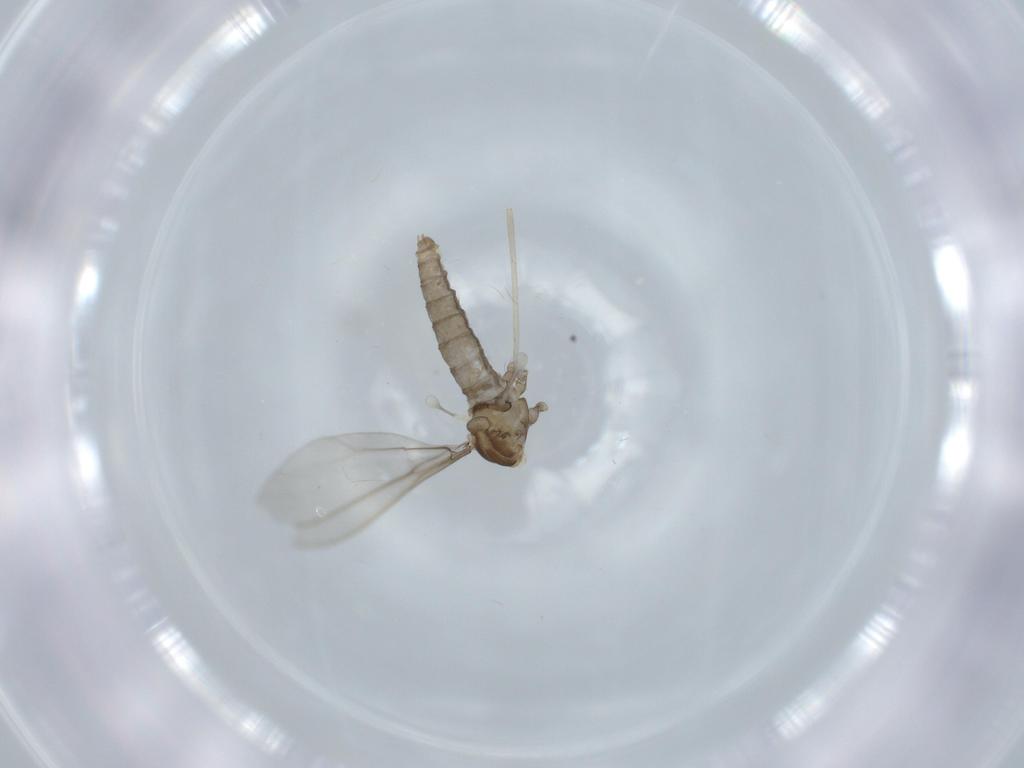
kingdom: Animalia
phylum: Arthropoda
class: Insecta
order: Diptera
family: Cecidomyiidae
